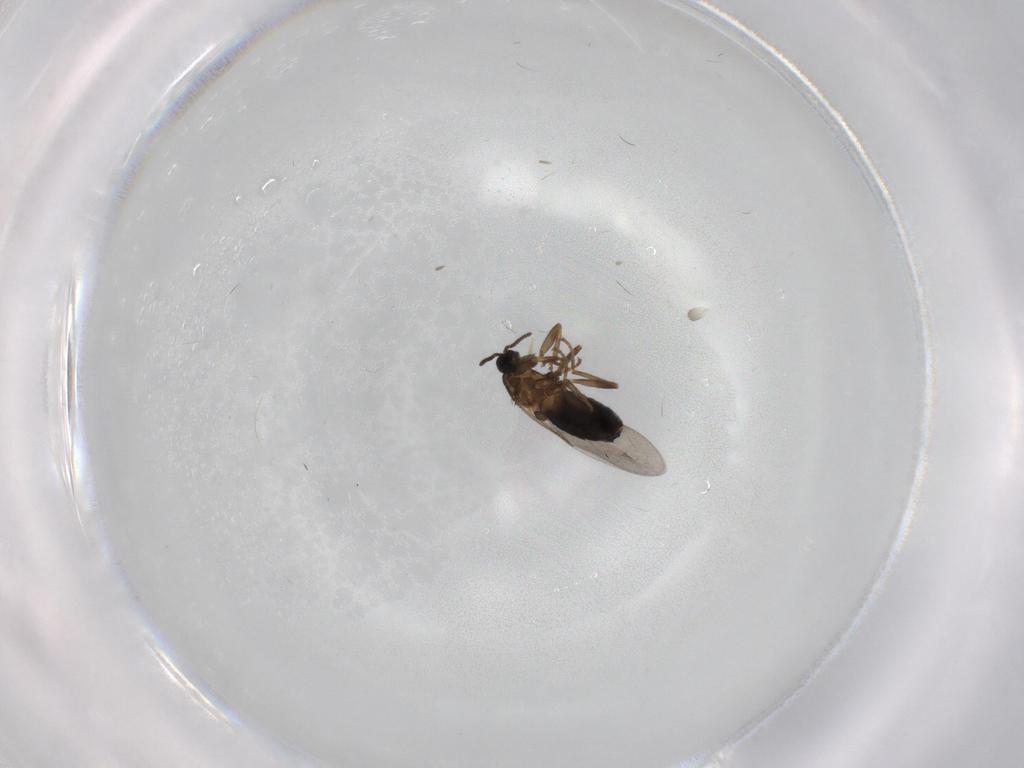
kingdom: Animalia
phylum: Arthropoda
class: Insecta
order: Diptera
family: Scatopsidae
